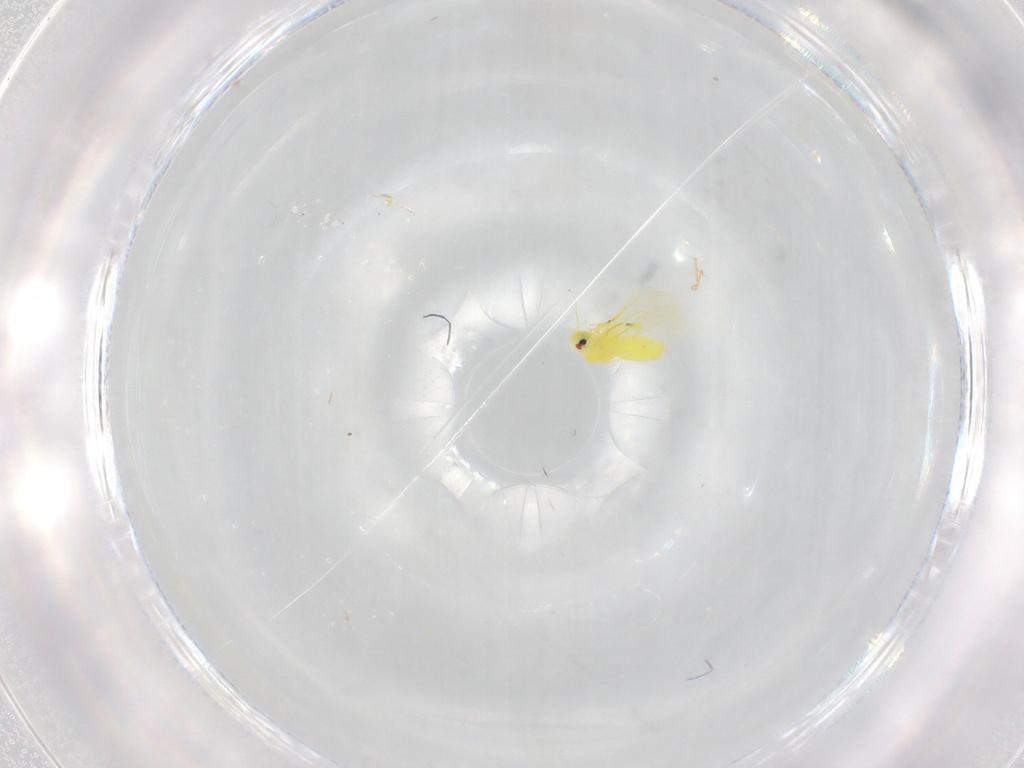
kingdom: Animalia
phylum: Arthropoda
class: Insecta
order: Hemiptera
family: Aleyrodidae
